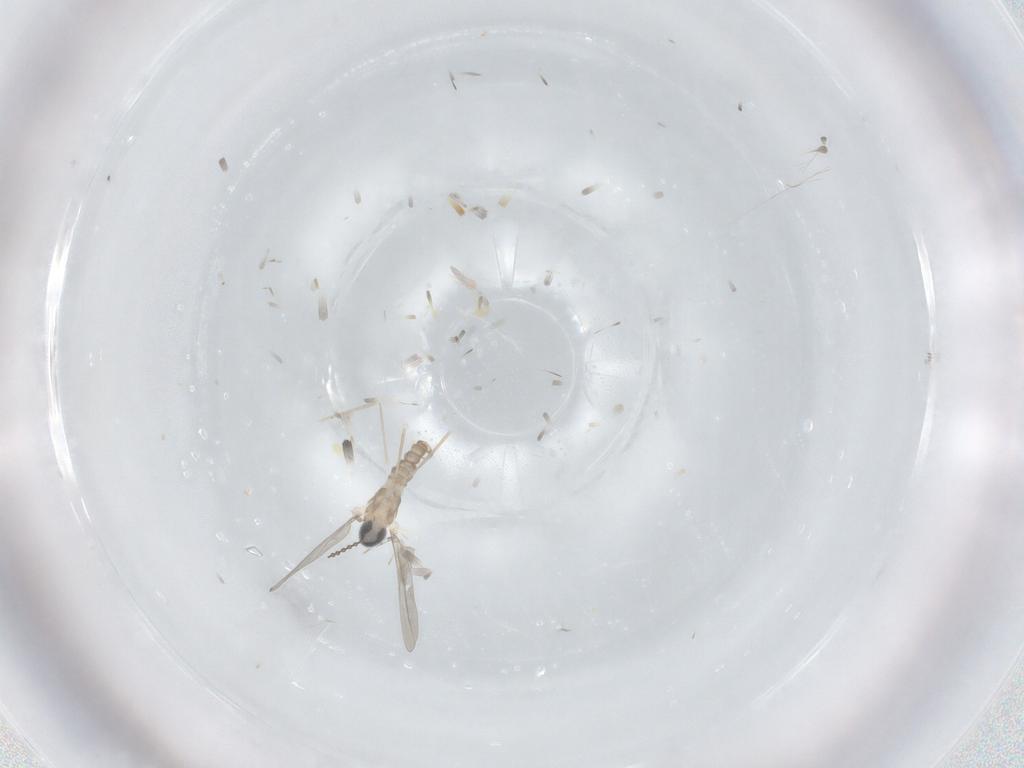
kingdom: Animalia
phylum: Arthropoda
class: Insecta
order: Diptera
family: Cecidomyiidae
